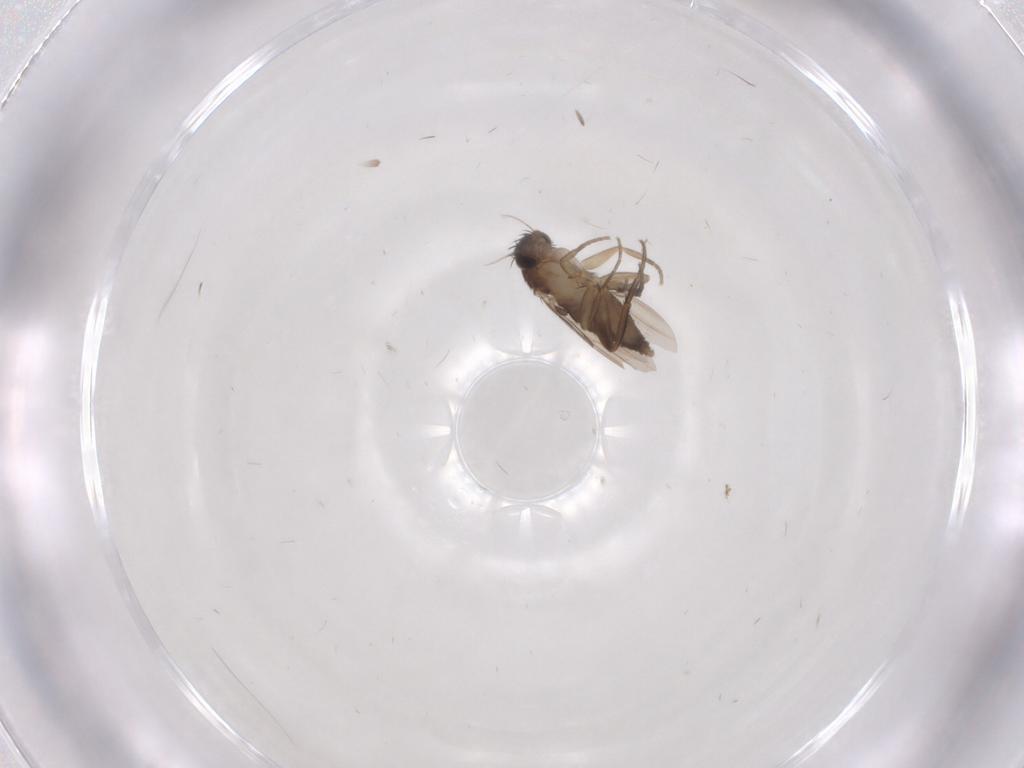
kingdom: Animalia
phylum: Arthropoda
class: Insecta
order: Diptera
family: Phoridae
